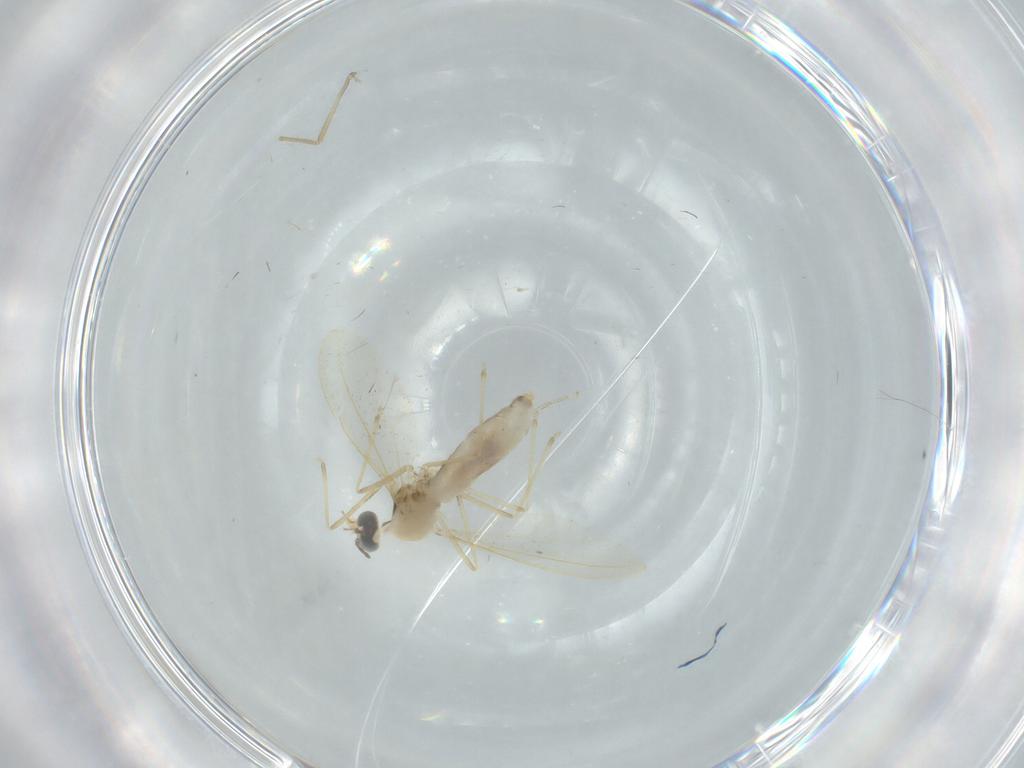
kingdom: Animalia
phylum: Arthropoda
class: Insecta
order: Diptera
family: Cecidomyiidae
